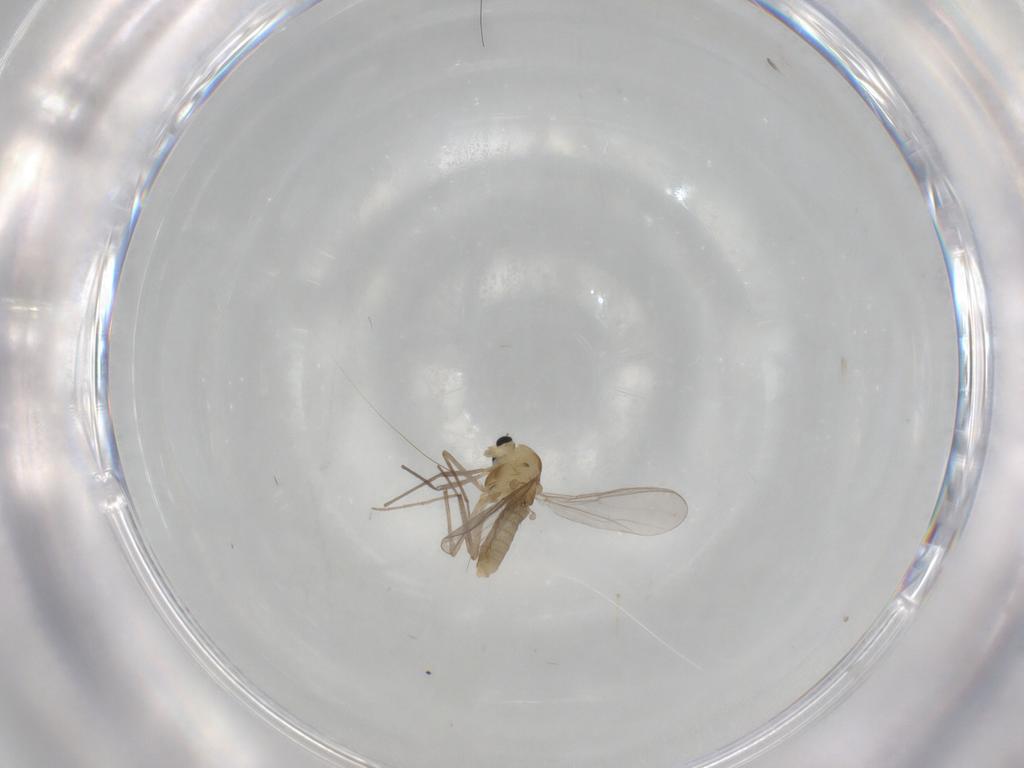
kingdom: Animalia
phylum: Arthropoda
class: Insecta
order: Diptera
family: Chironomidae
